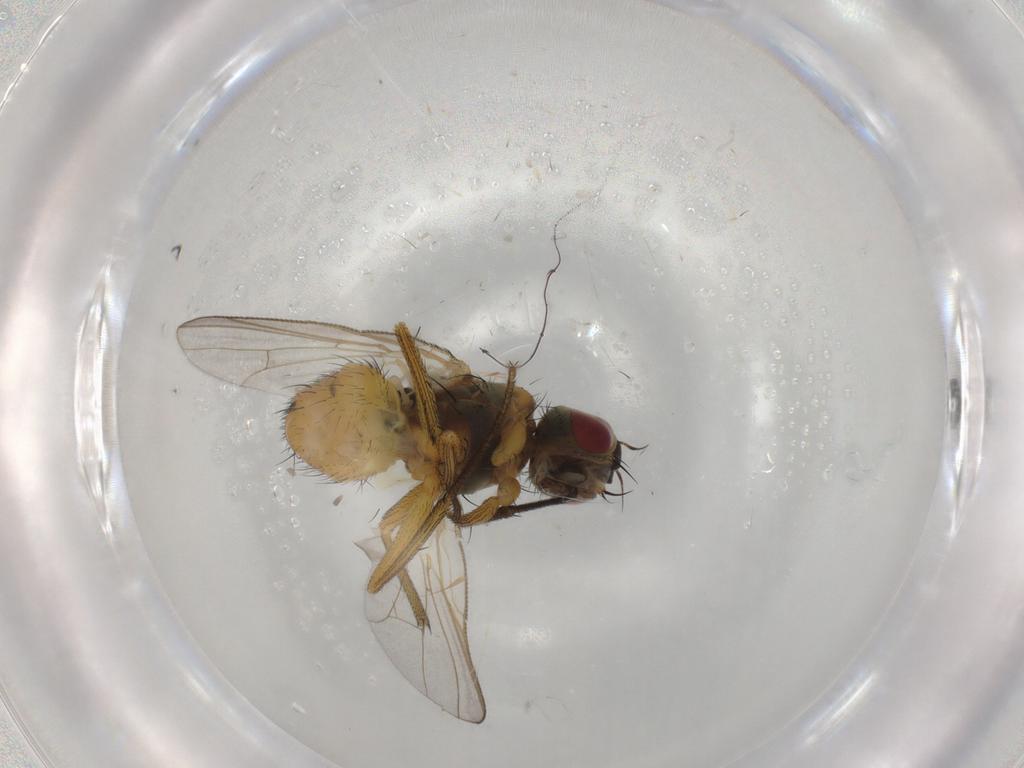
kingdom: Animalia
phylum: Arthropoda
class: Insecta
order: Diptera
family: Muscidae
